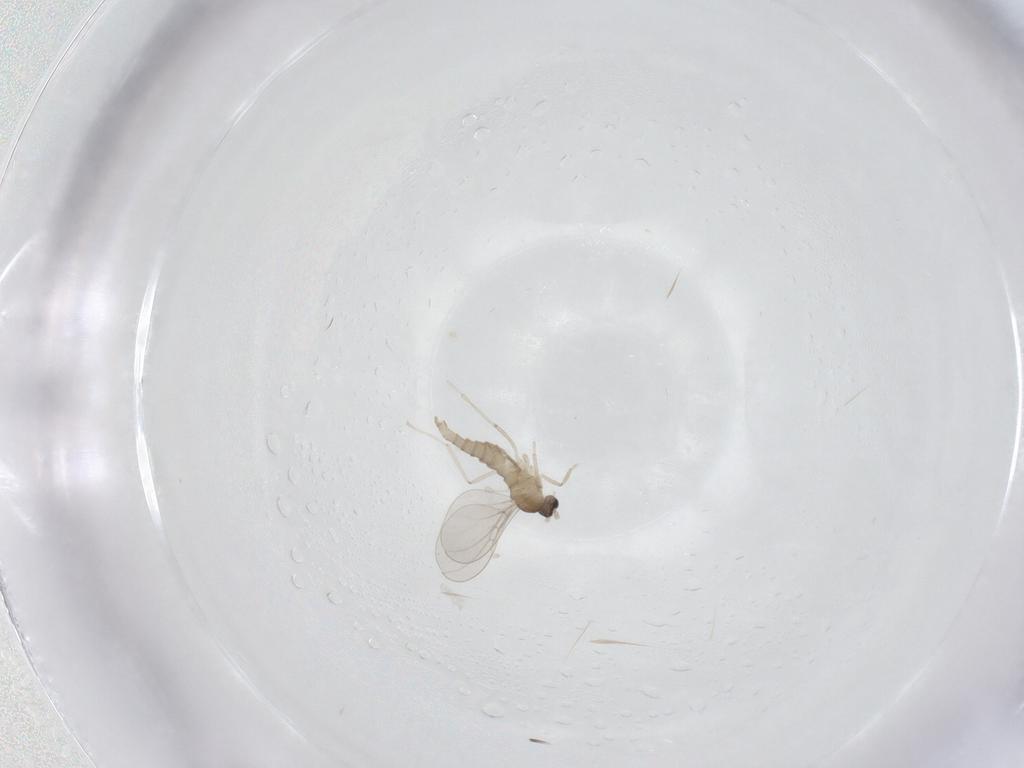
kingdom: Animalia
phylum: Arthropoda
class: Insecta
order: Diptera
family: Cecidomyiidae
